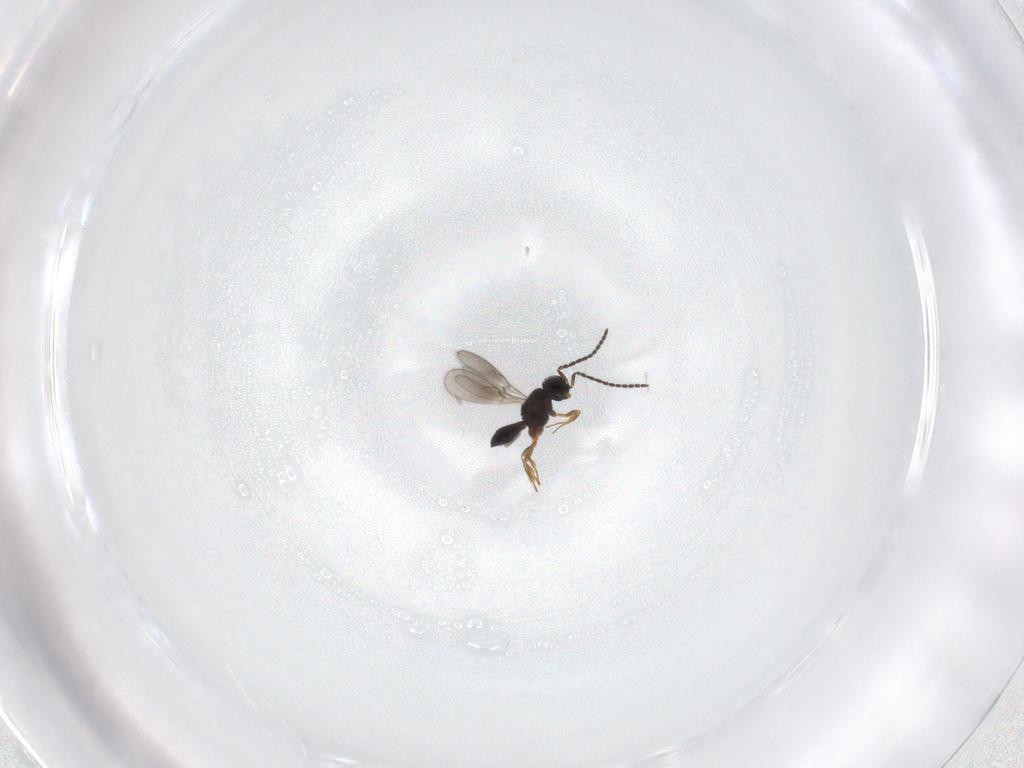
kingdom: Animalia
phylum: Arthropoda
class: Insecta
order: Hymenoptera
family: Scelionidae
